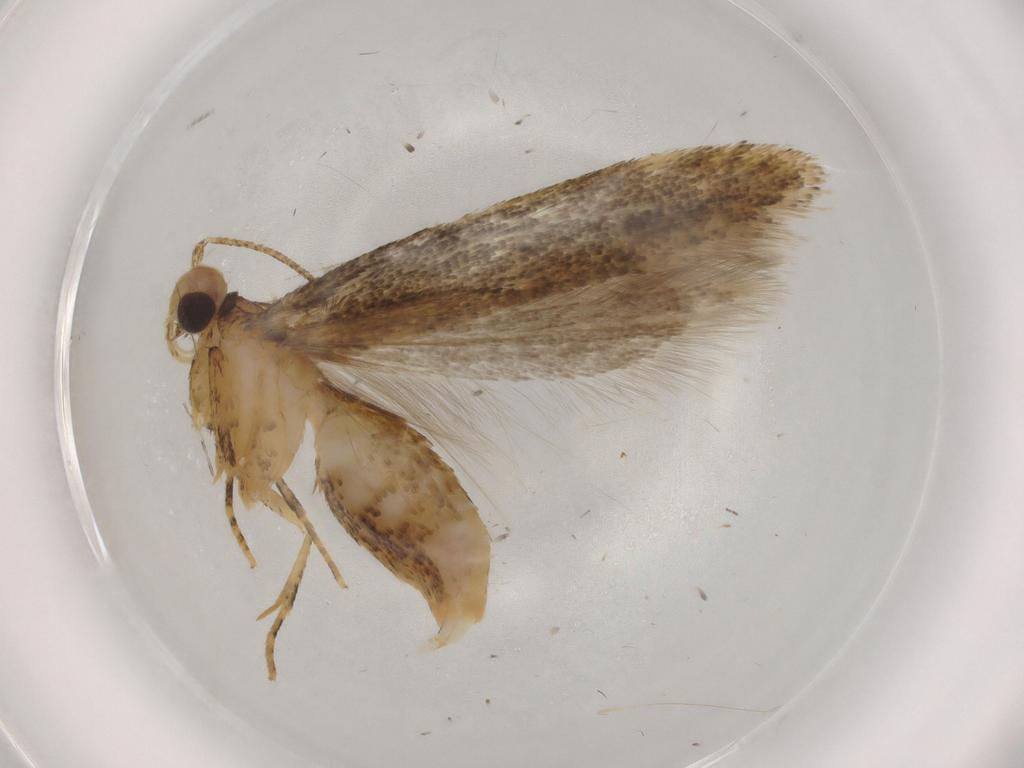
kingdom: Animalia
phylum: Arthropoda
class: Insecta
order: Lepidoptera
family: Gelechiidae
